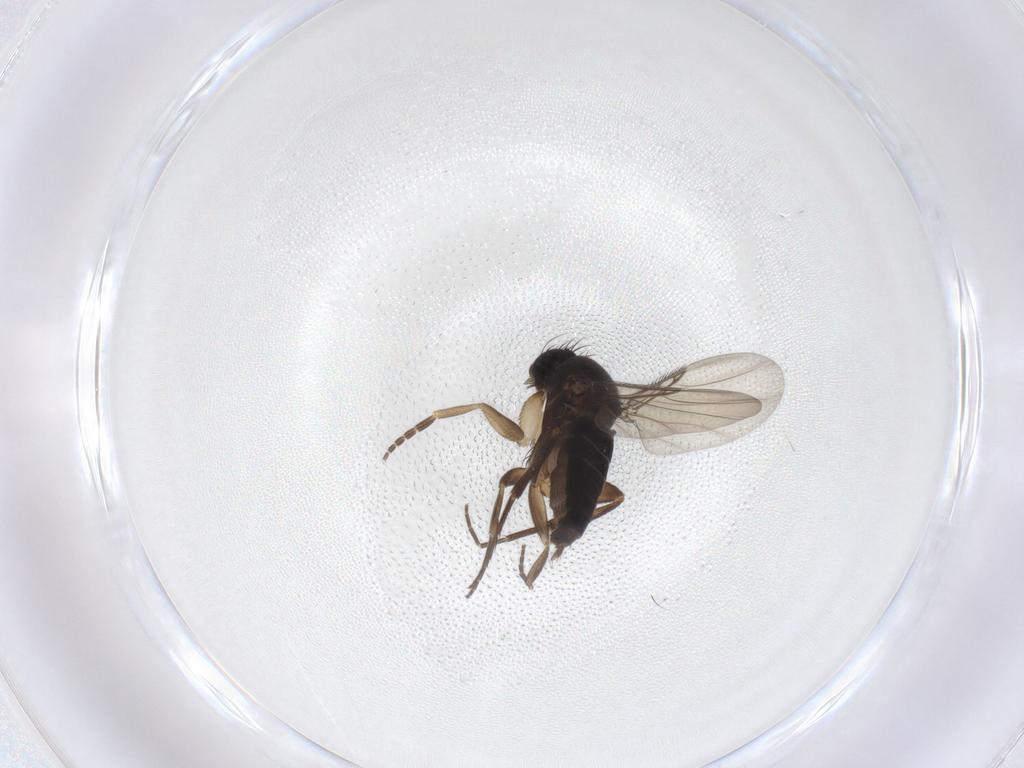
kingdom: Animalia
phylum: Arthropoda
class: Insecta
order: Diptera
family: Phoridae
